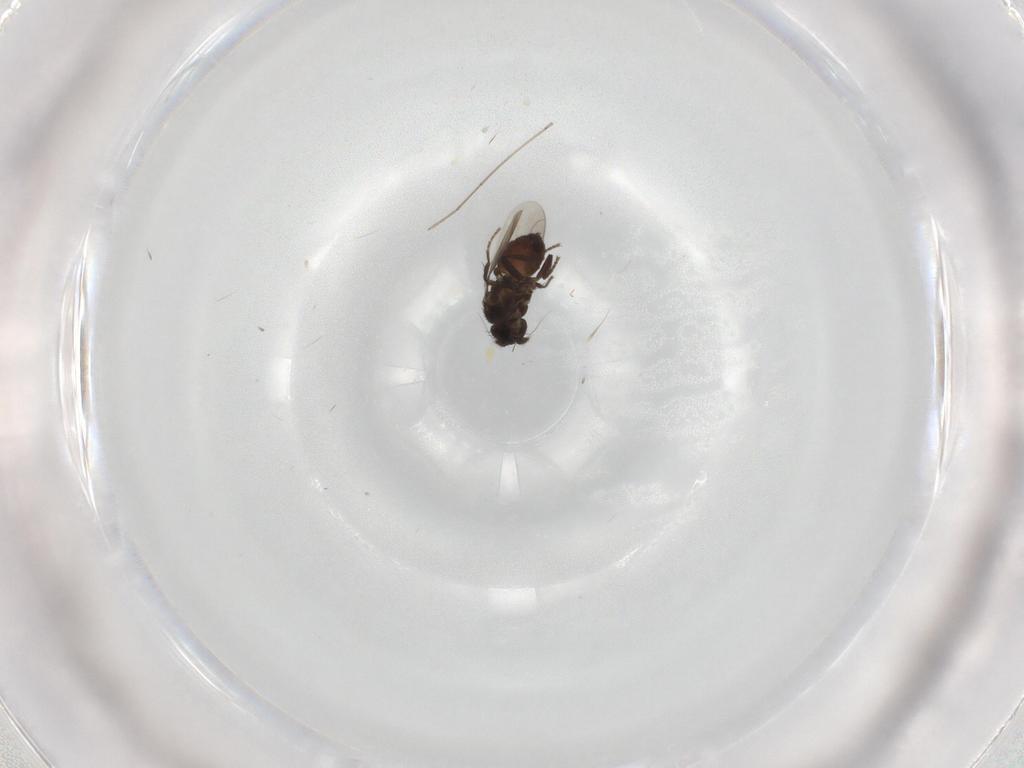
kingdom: Animalia
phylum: Arthropoda
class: Insecta
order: Diptera
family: Sphaeroceridae
